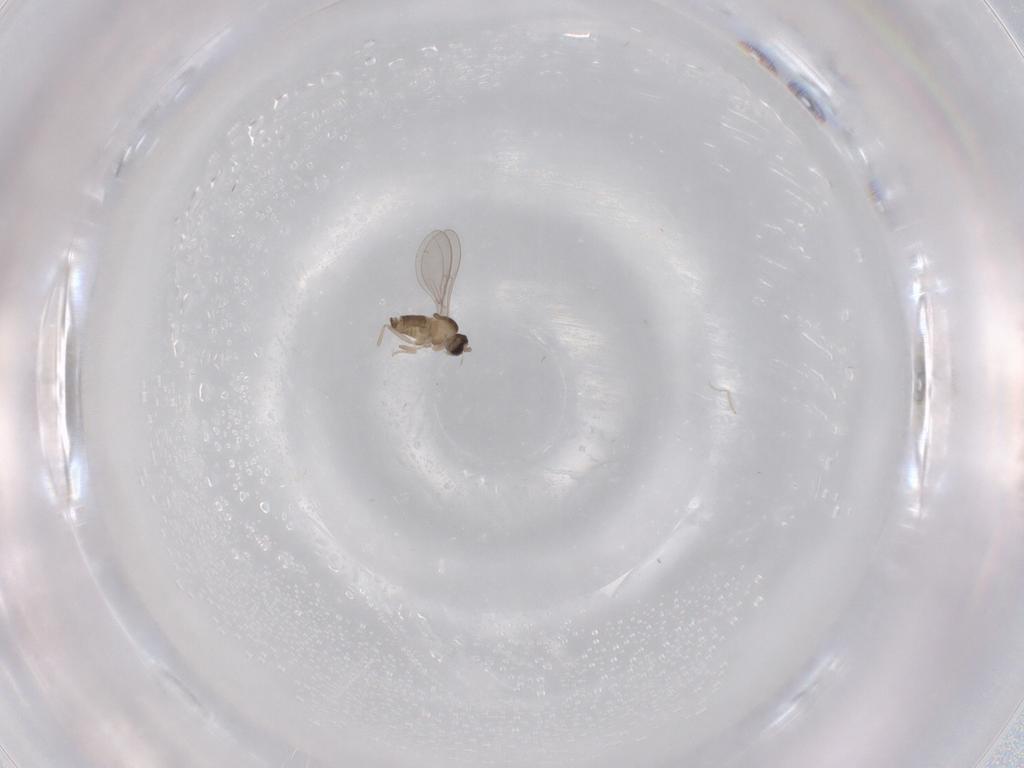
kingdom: Animalia
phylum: Arthropoda
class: Insecta
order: Diptera
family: Cecidomyiidae
